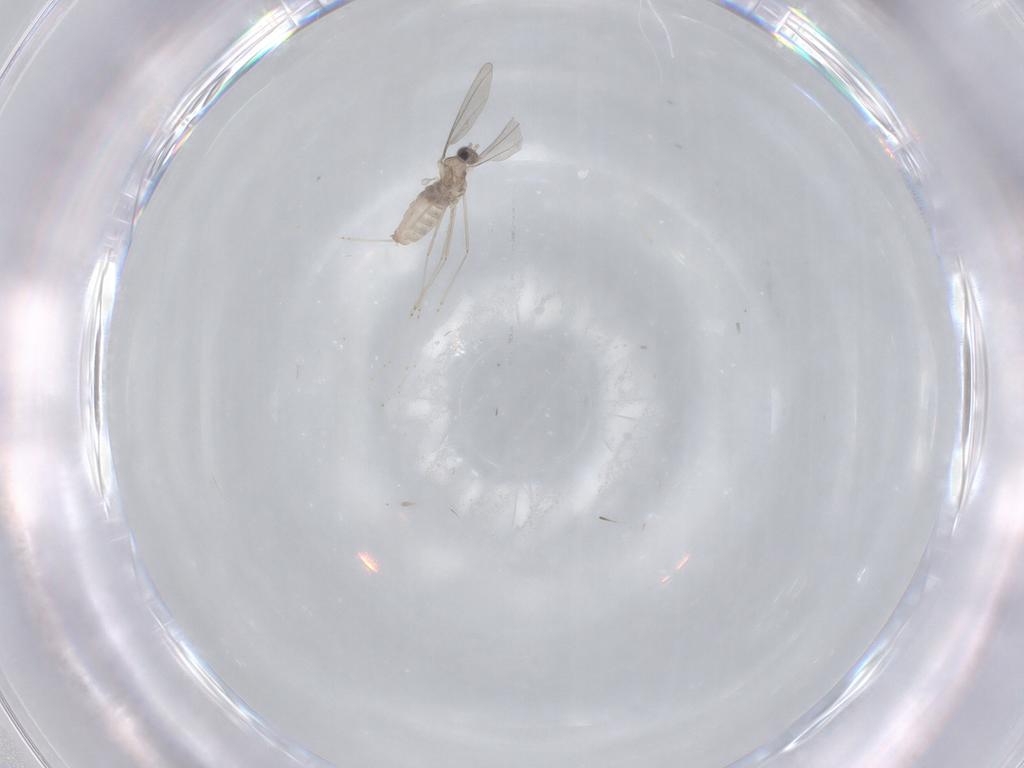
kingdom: Animalia
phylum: Arthropoda
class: Insecta
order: Diptera
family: Cecidomyiidae
